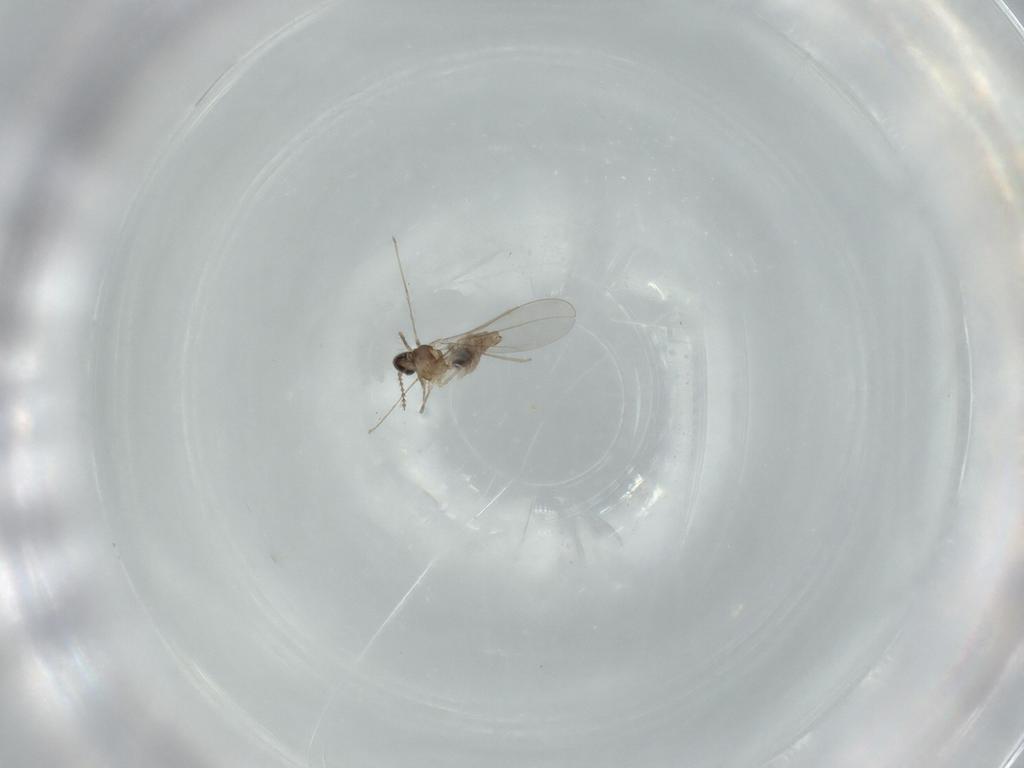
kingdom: Animalia
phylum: Arthropoda
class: Insecta
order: Diptera
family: Cecidomyiidae
